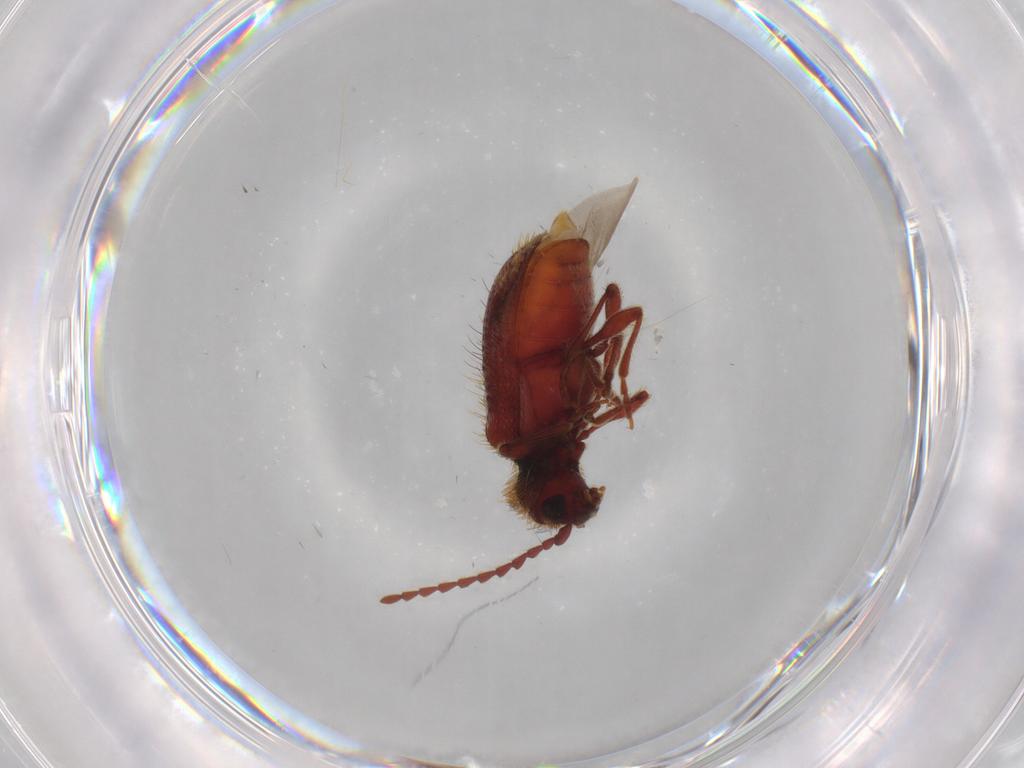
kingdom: Animalia
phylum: Arthropoda
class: Insecta
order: Coleoptera
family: Ptinidae
